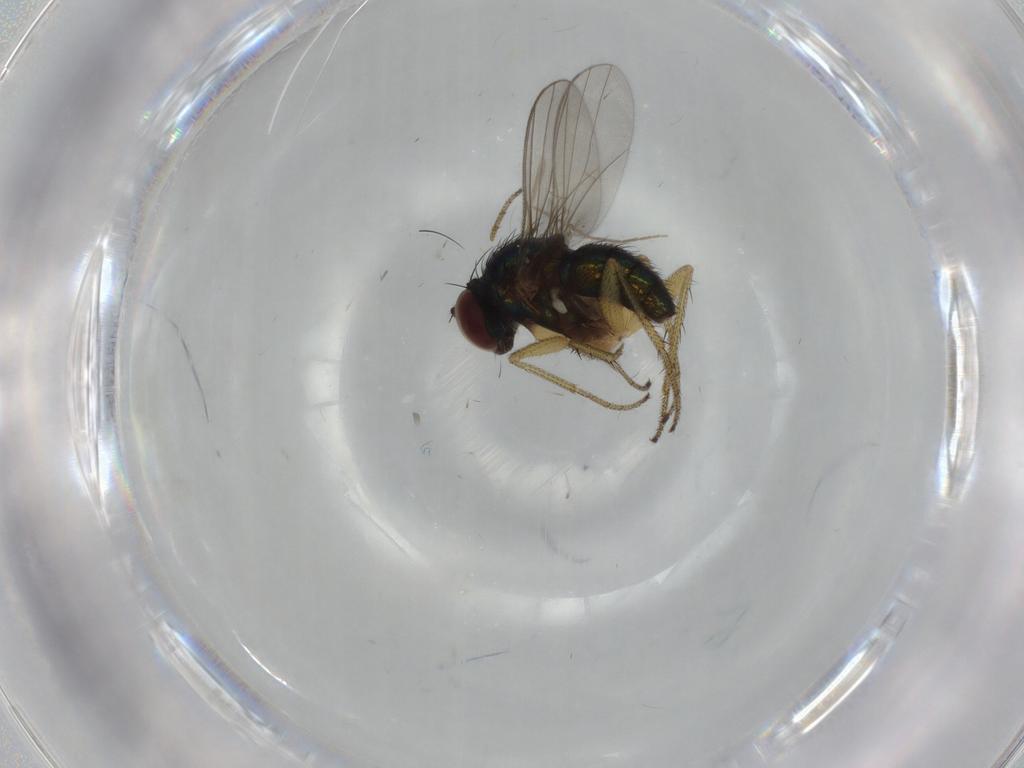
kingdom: Animalia
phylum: Arthropoda
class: Insecta
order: Diptera
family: Dolichopodidae
